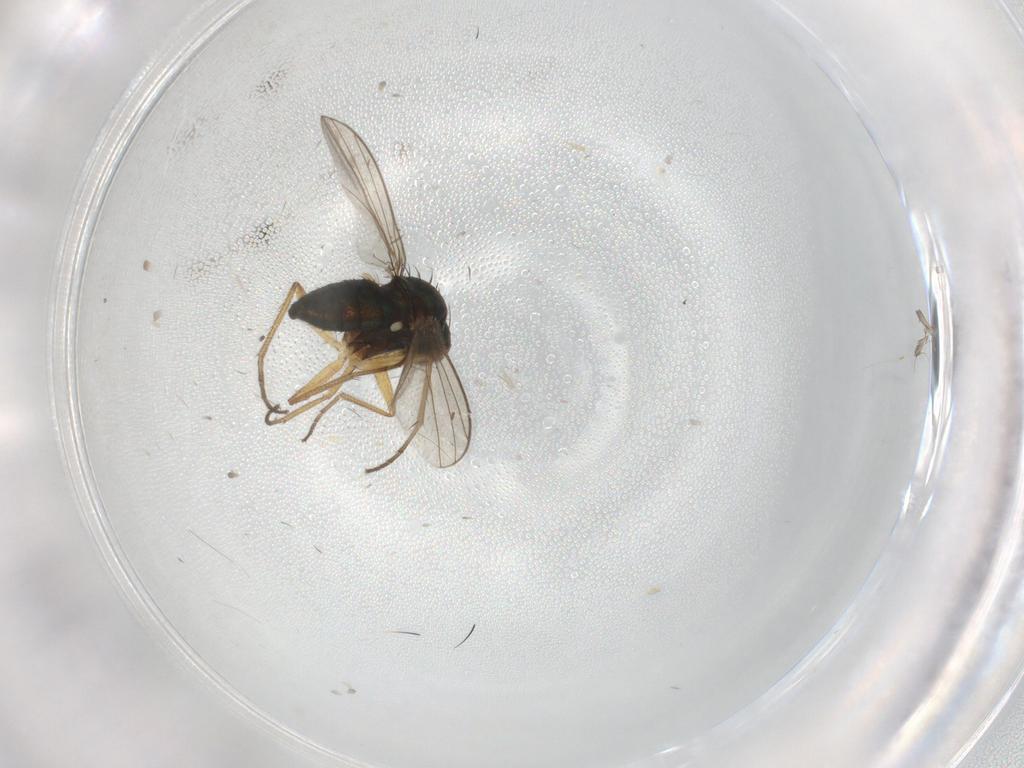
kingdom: Animalia
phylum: Arthropoda
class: Insecta
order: Diptera
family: Dolichopodidae
